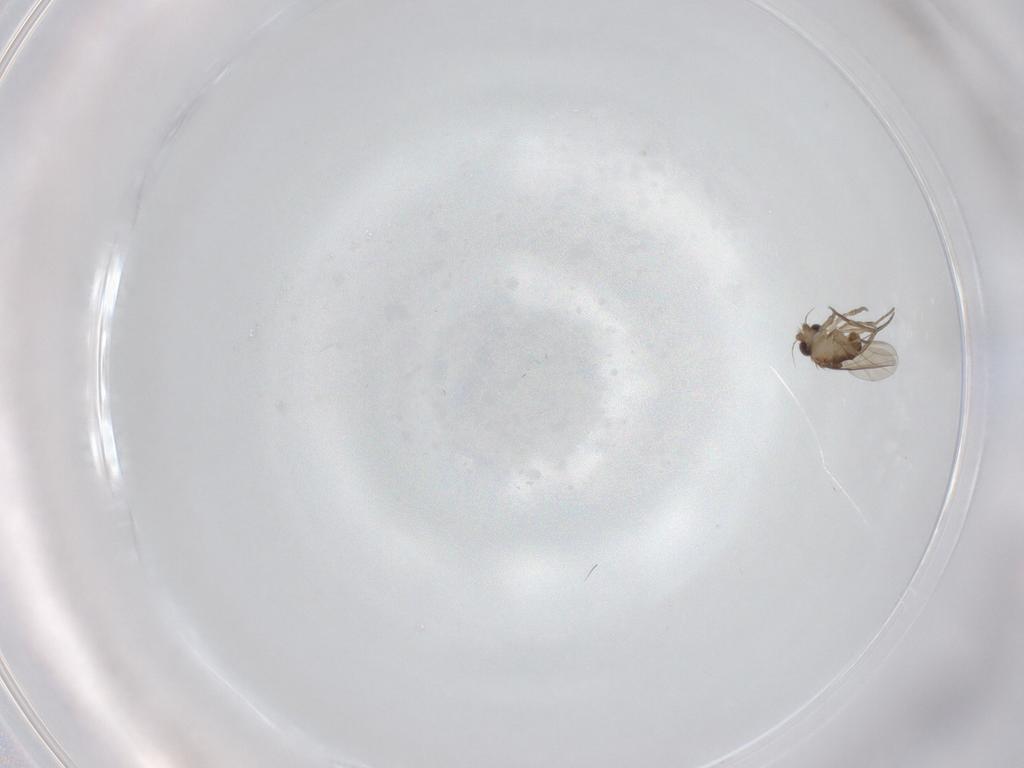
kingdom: Animalia
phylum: Arthropoda
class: Insecta
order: Diptera
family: Phoridae
